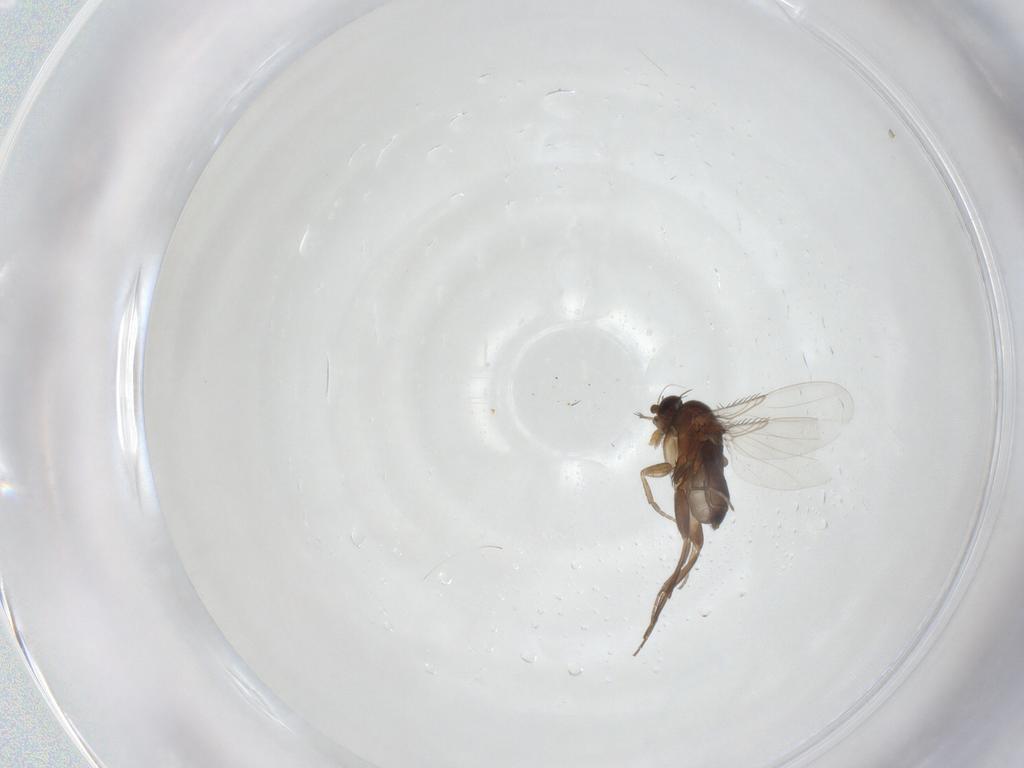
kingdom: Animalia
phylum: Arthropoda
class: Insecta
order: Diptera
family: Phoridae
